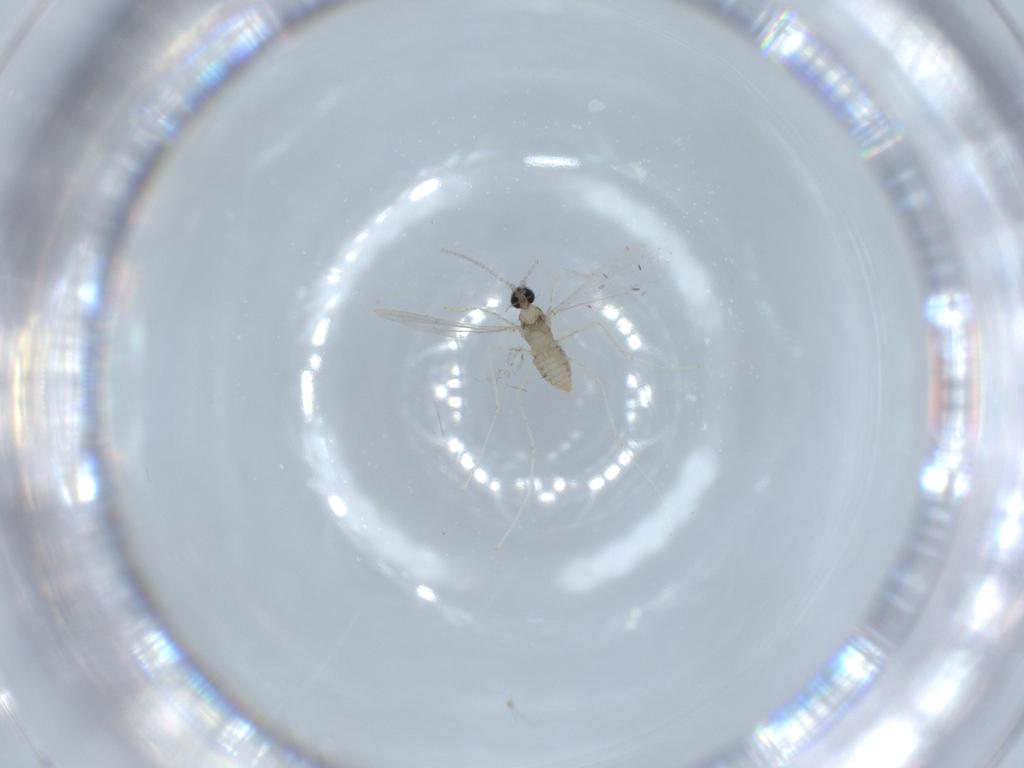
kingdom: Animalia
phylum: Arthropoda
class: Insecta
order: Diptera
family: Cecidomyiidae
